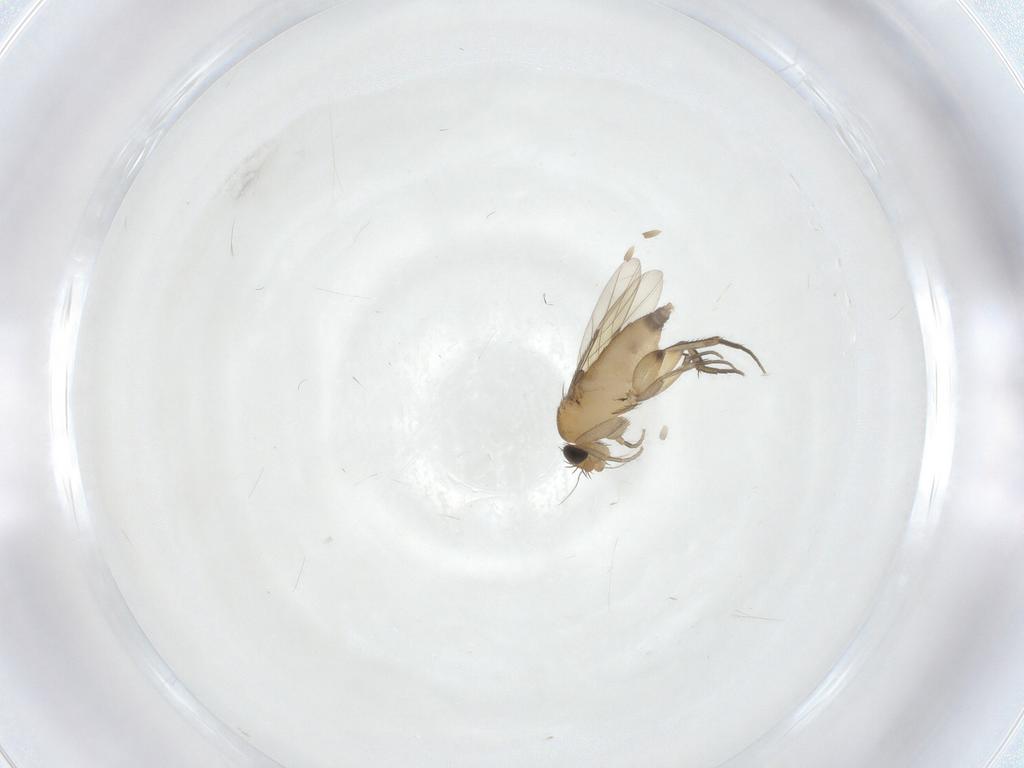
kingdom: Animalia
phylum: Arthropoda
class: Insecta
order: Diptera
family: Phoridae
